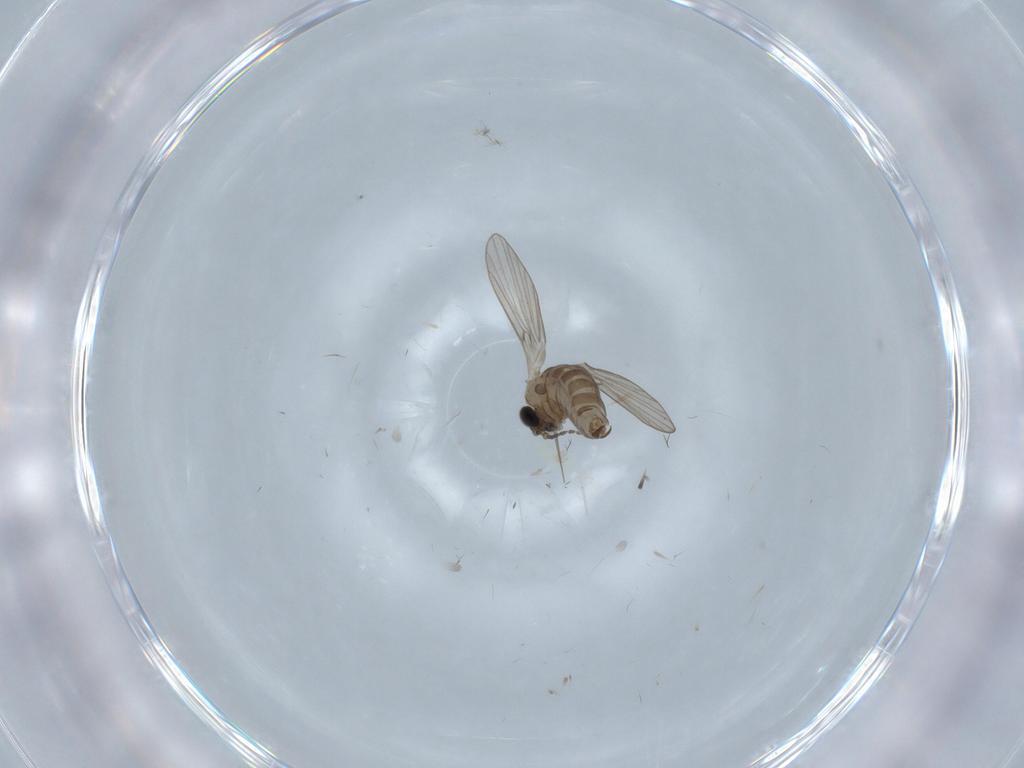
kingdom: Animalia
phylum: Arthropoda
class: Insecta
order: Diptera
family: Psychodidae
